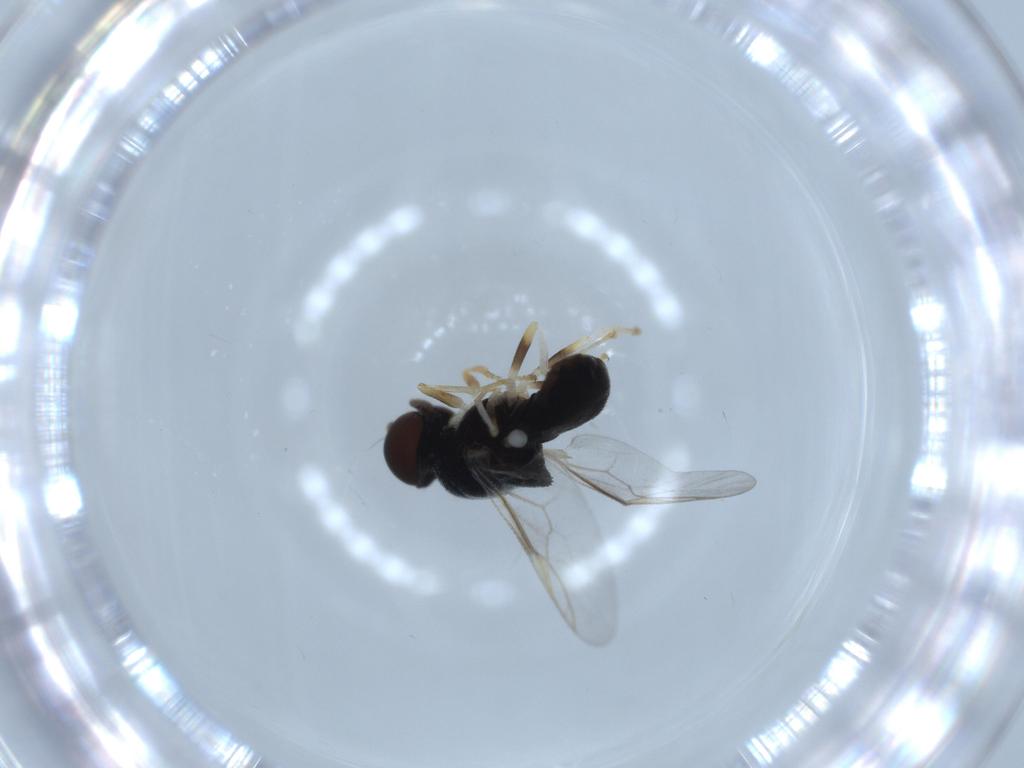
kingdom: Animalia
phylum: Arthropoda
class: Insecta
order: Diptera
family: Stratiomyidae
